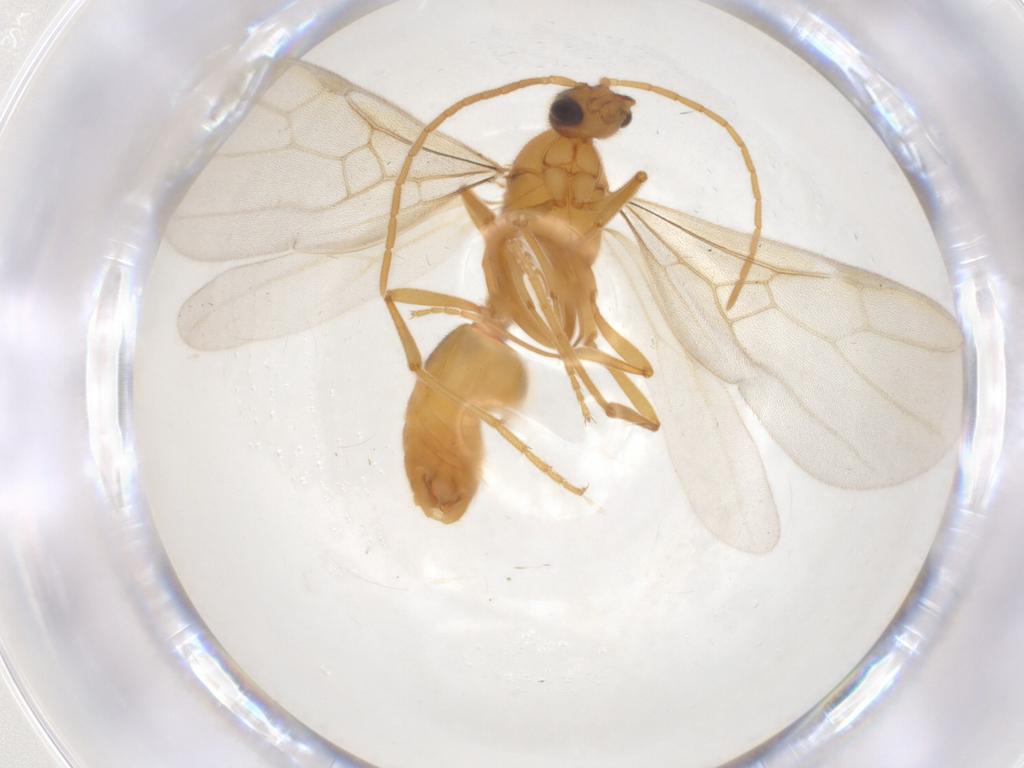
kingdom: Animalia
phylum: Arthropoda
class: Insecta
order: Hymenoptera
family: Formicidae
